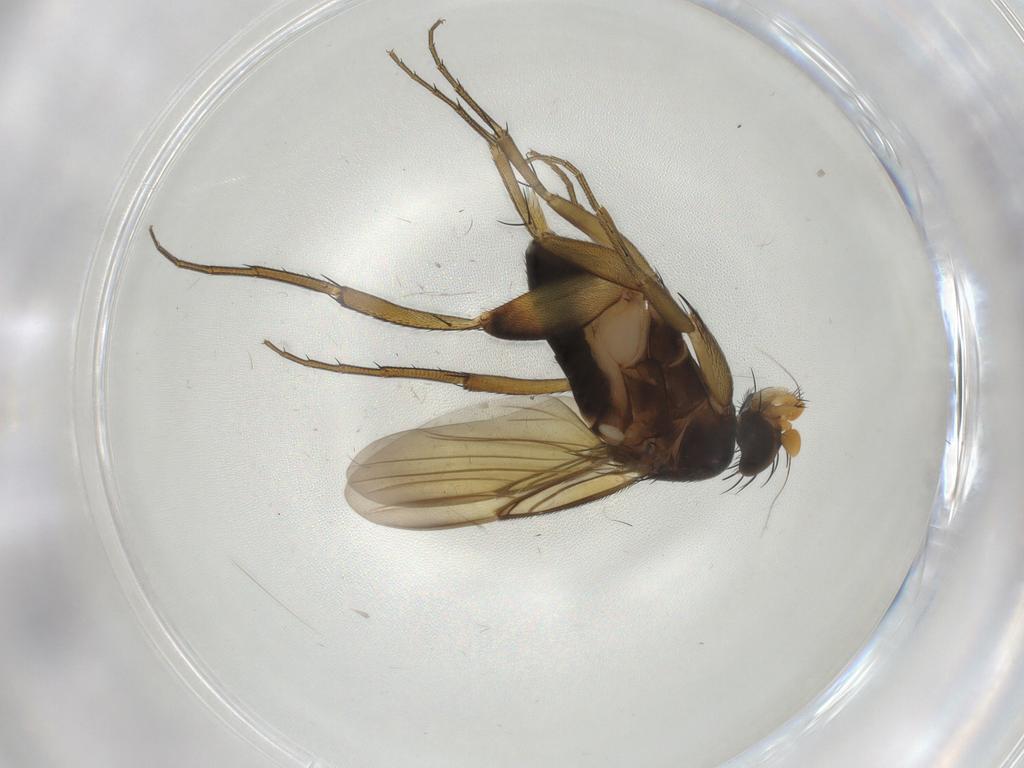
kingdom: Animalia
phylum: Arthropoda
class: Insecta
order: Diptera
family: Phoridae
